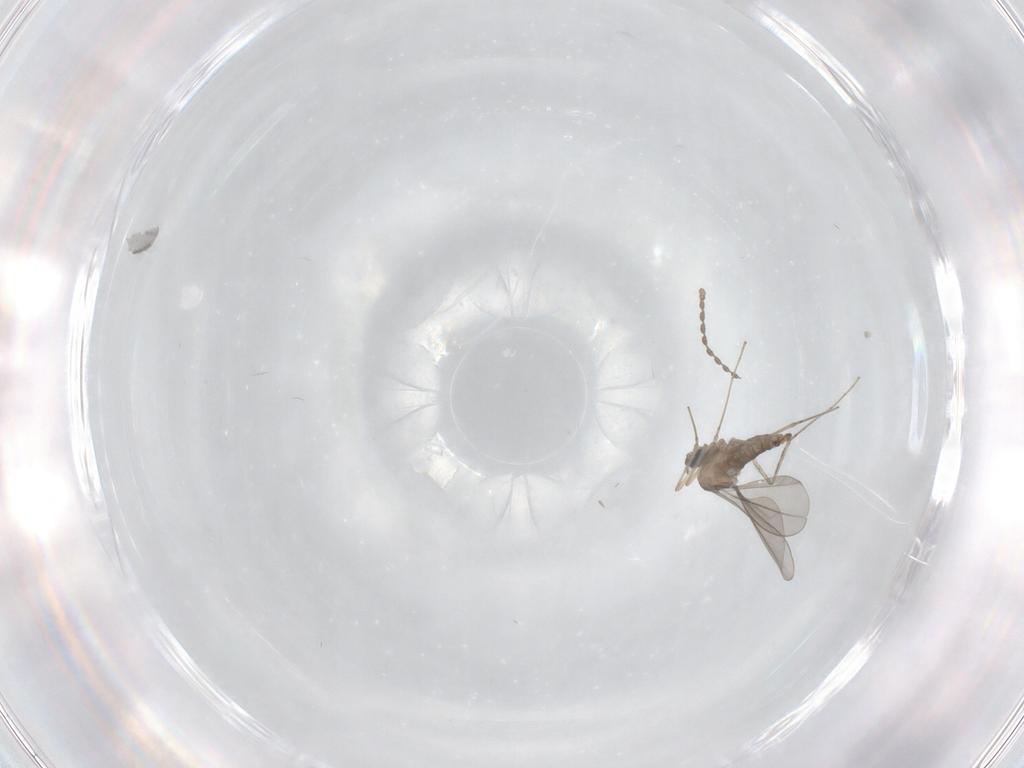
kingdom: Animalia
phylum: Arthropoda
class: Insecta
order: Diptera
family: Cecidomyiidae
